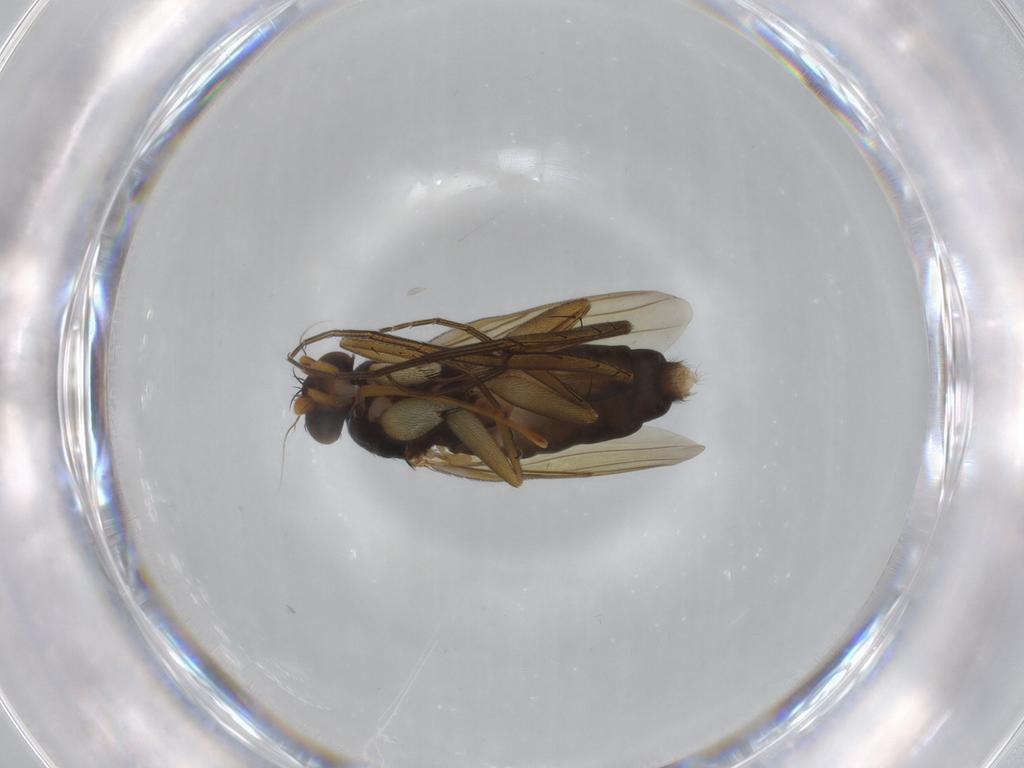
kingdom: Animalia
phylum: Arthropoda
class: Insecta
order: Diptera
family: Phoridae
